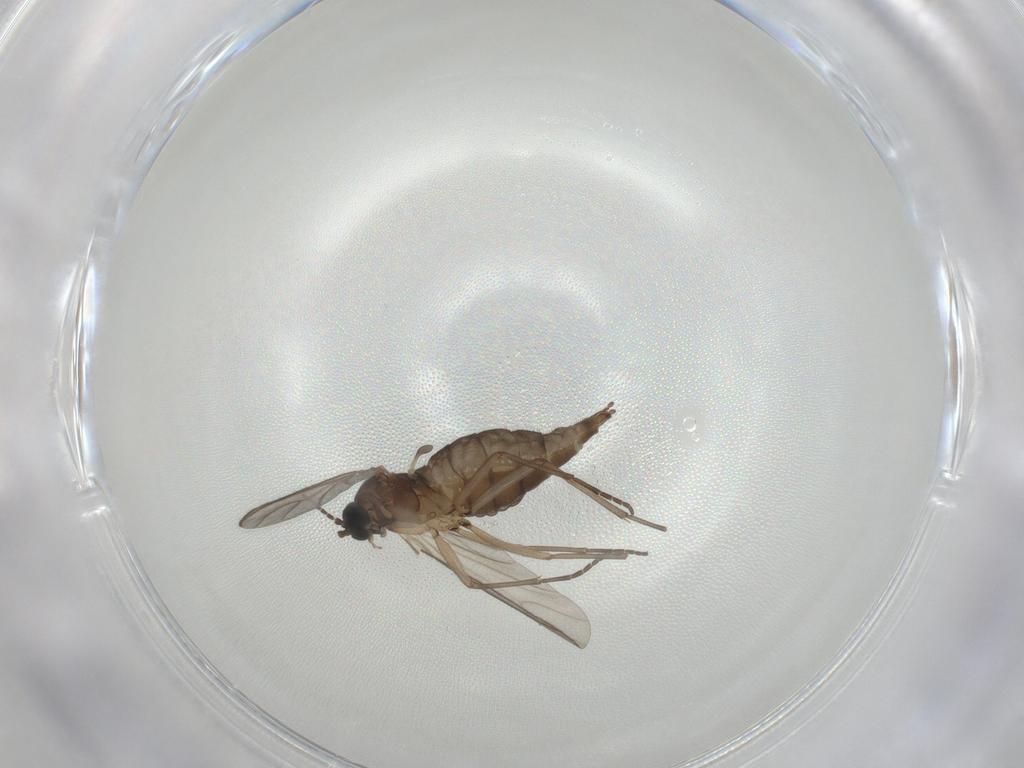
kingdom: Animalia
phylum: Arthropoda
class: Insecta
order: Diptera
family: Sciaridae
